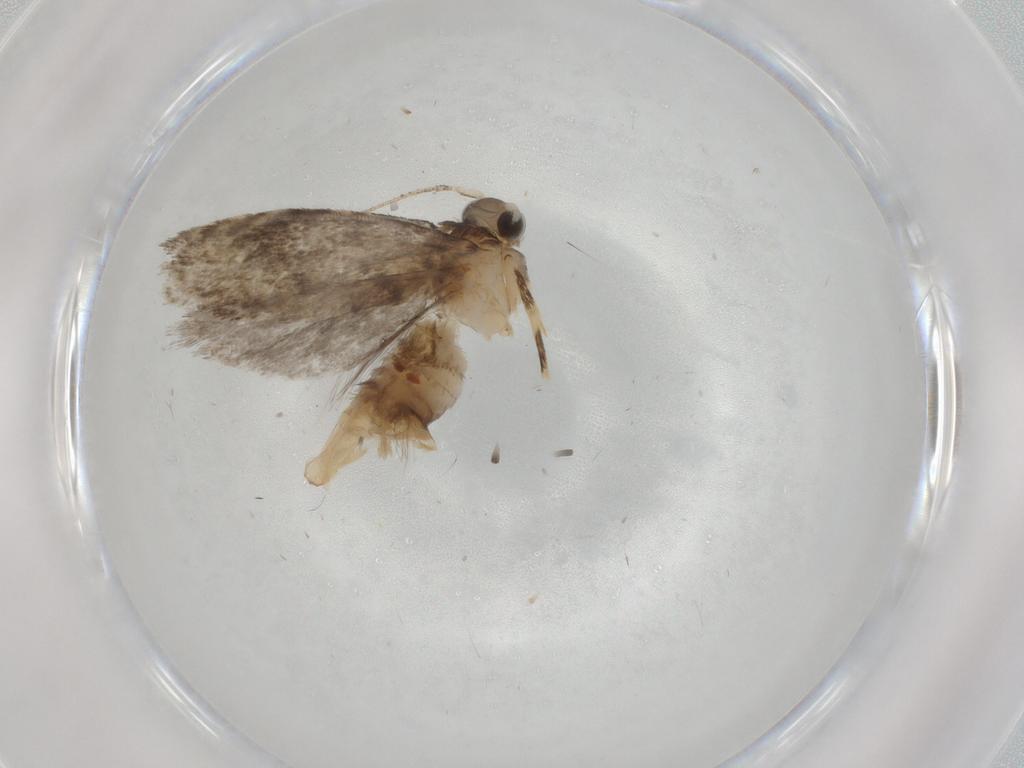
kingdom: Animalia
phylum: Arthropoda
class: Insecta
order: Lepidoptera
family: Tineidae
